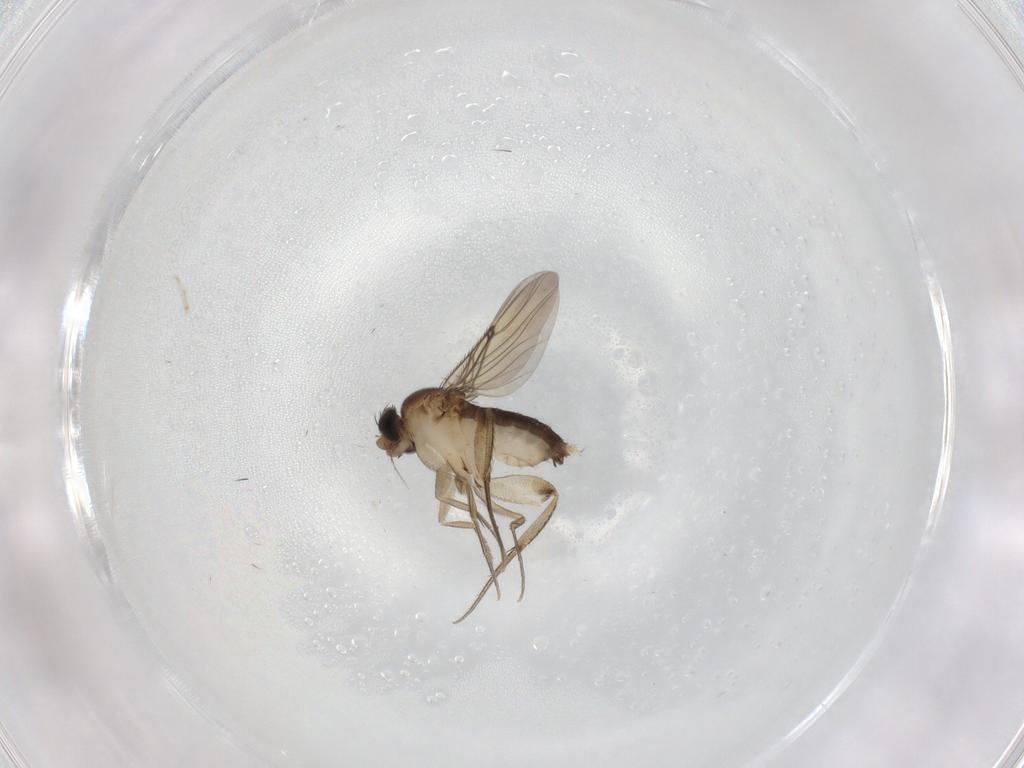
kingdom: Animalia
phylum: Arthropoda
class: Insecta
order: Diptera
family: Phoridae
